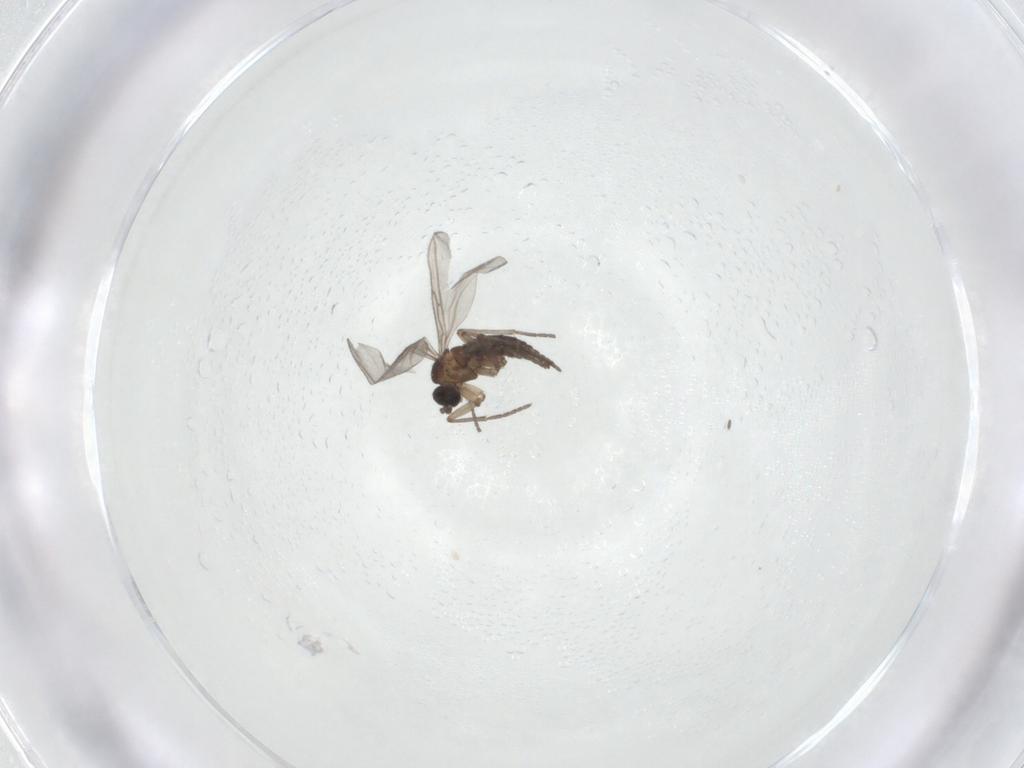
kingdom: Animalia
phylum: Arthropoda
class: Insecta
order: Diptera
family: Sciaridae
